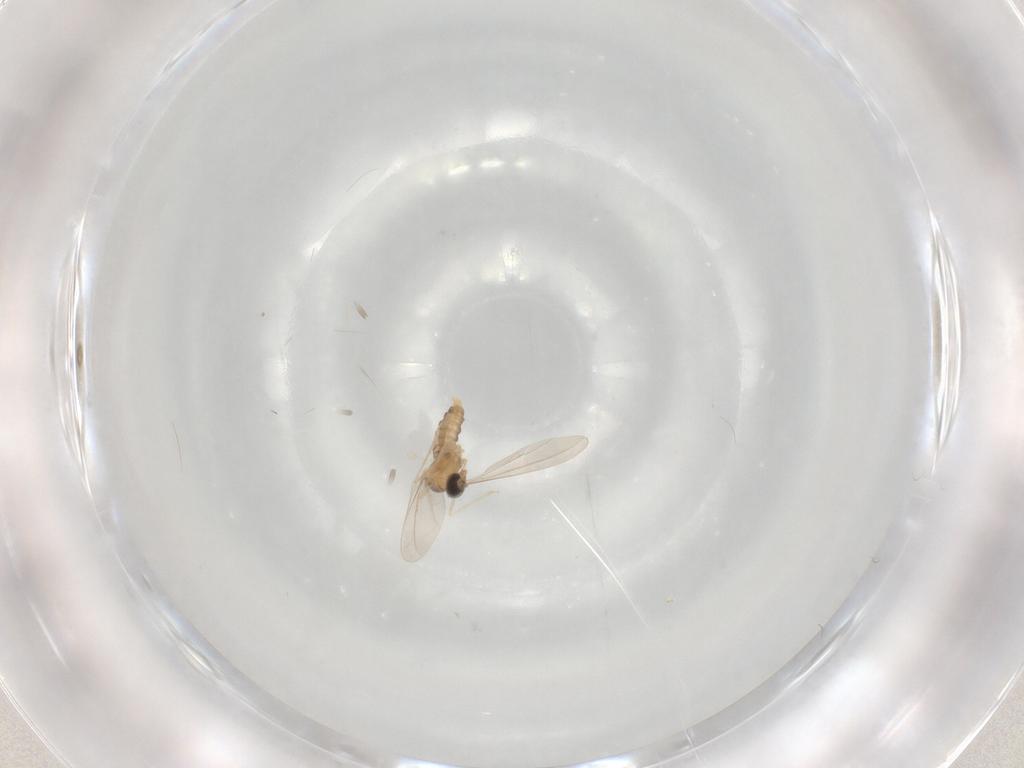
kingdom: Animalia
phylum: Arthropoda
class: Insecta
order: Diptera
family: Cecidomyiidae
